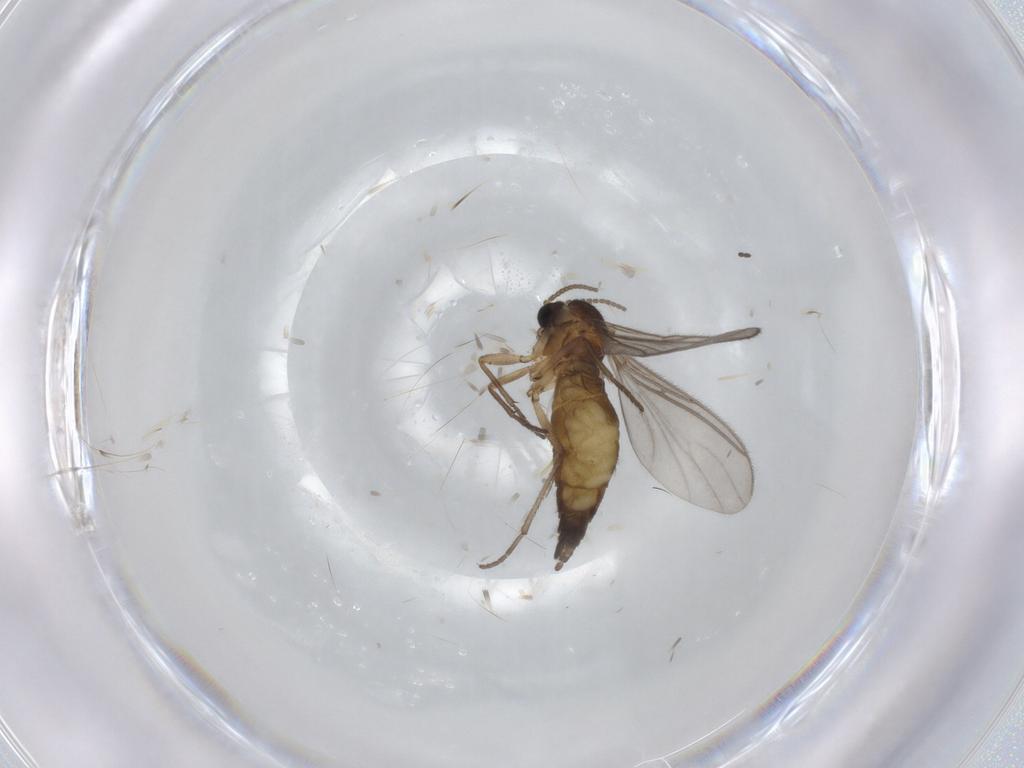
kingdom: Animalia
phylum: Arthropoda
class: Insecta
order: Diptera
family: Sciaridae
